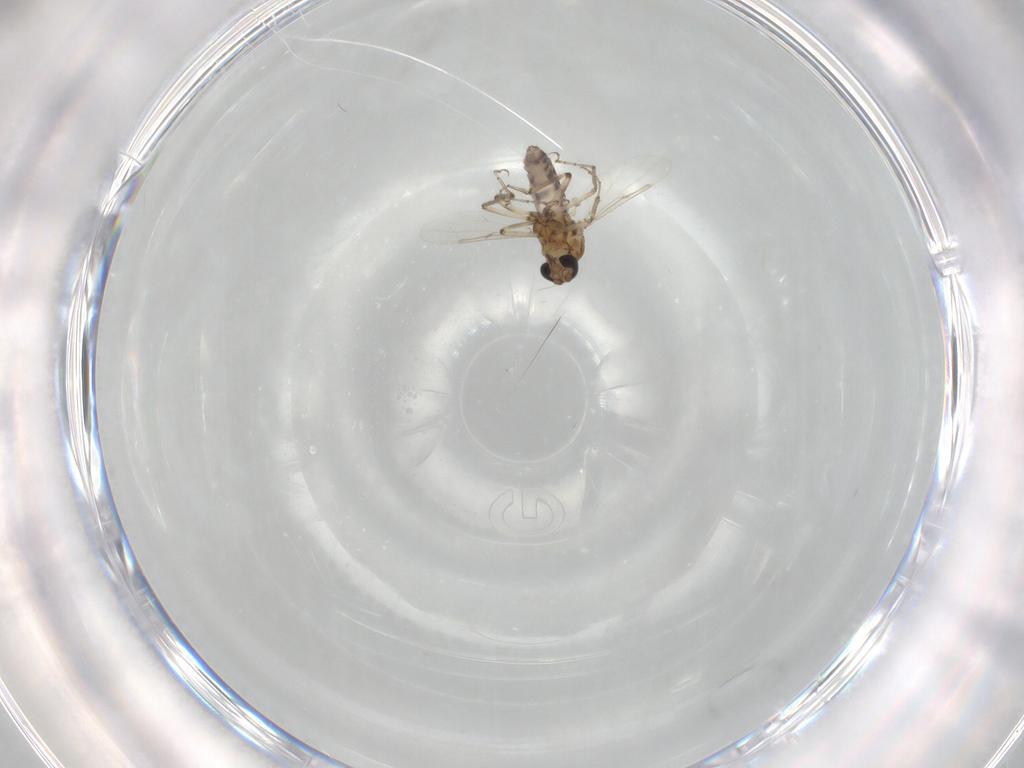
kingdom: Animalia
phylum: Arthropoda
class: Insecta
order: Diptera
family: Ceratopogonidae
